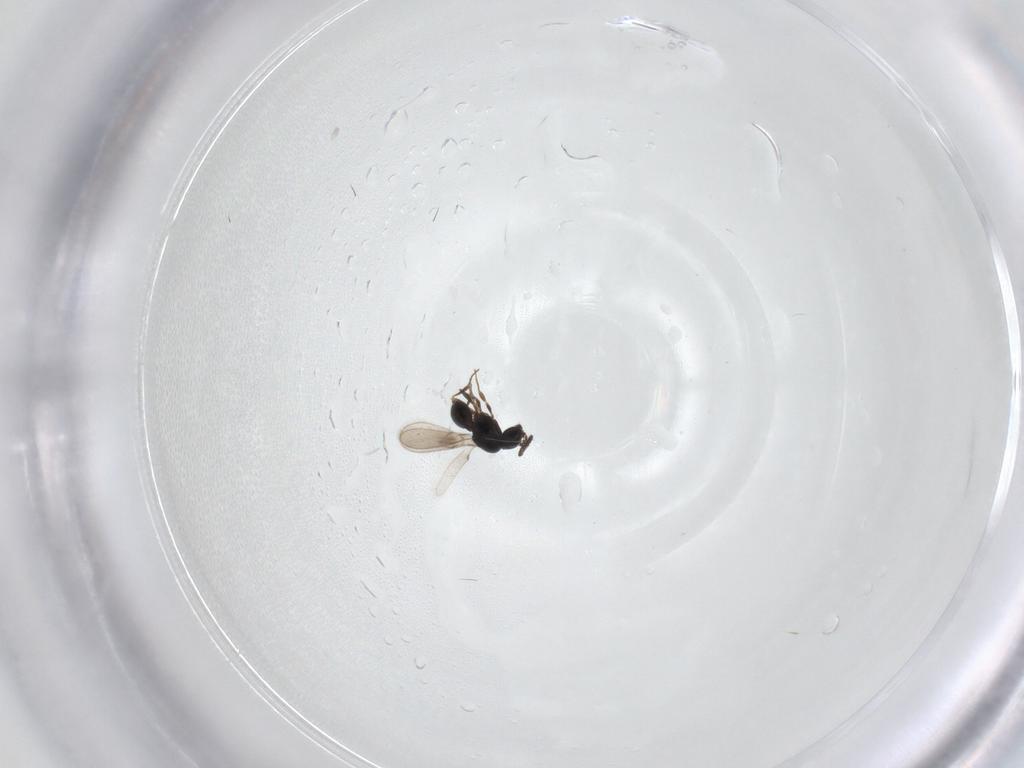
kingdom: Animalia
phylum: Arthropoda
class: Insecta
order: Hymenoptera
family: Scelionidae
